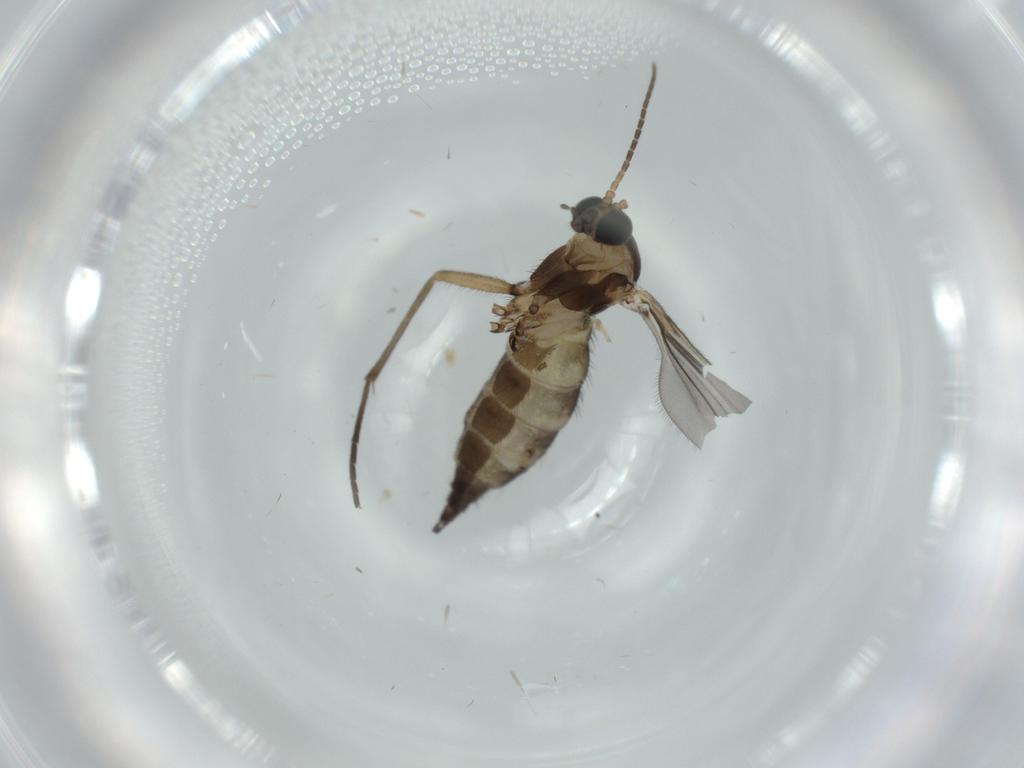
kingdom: Animalia
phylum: Arthropoda
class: Insecta
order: Diptera
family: Sciaridae
